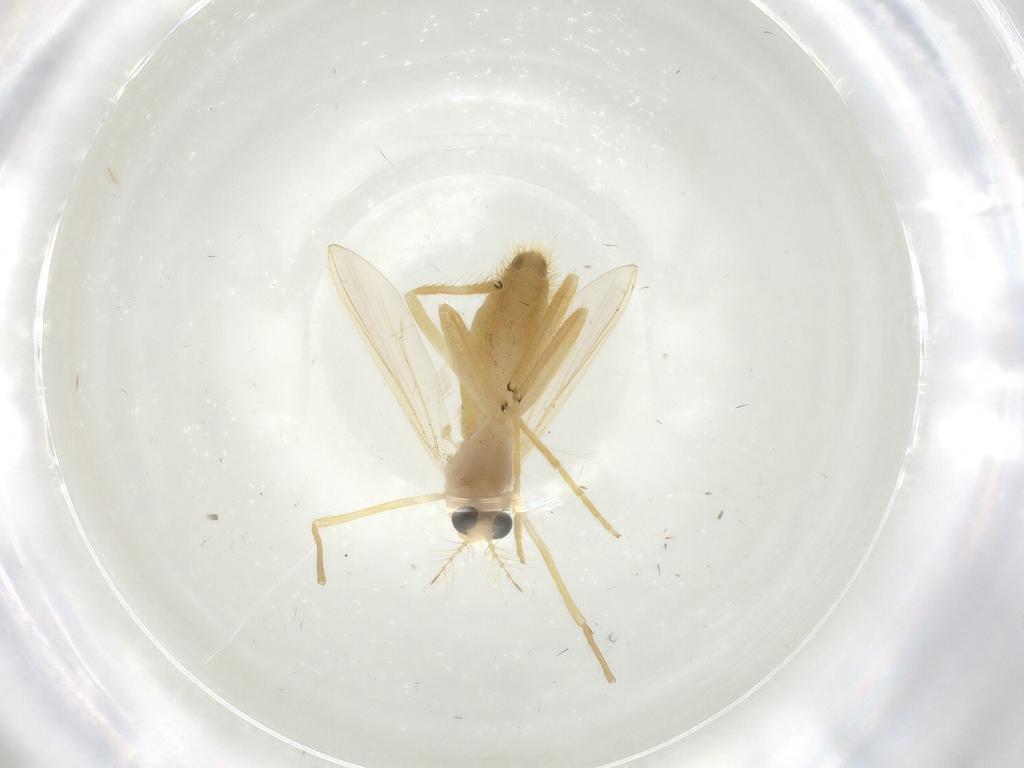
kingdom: Animalia
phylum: Arthropoda
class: Insecta
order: Diptera
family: Chironomidae
